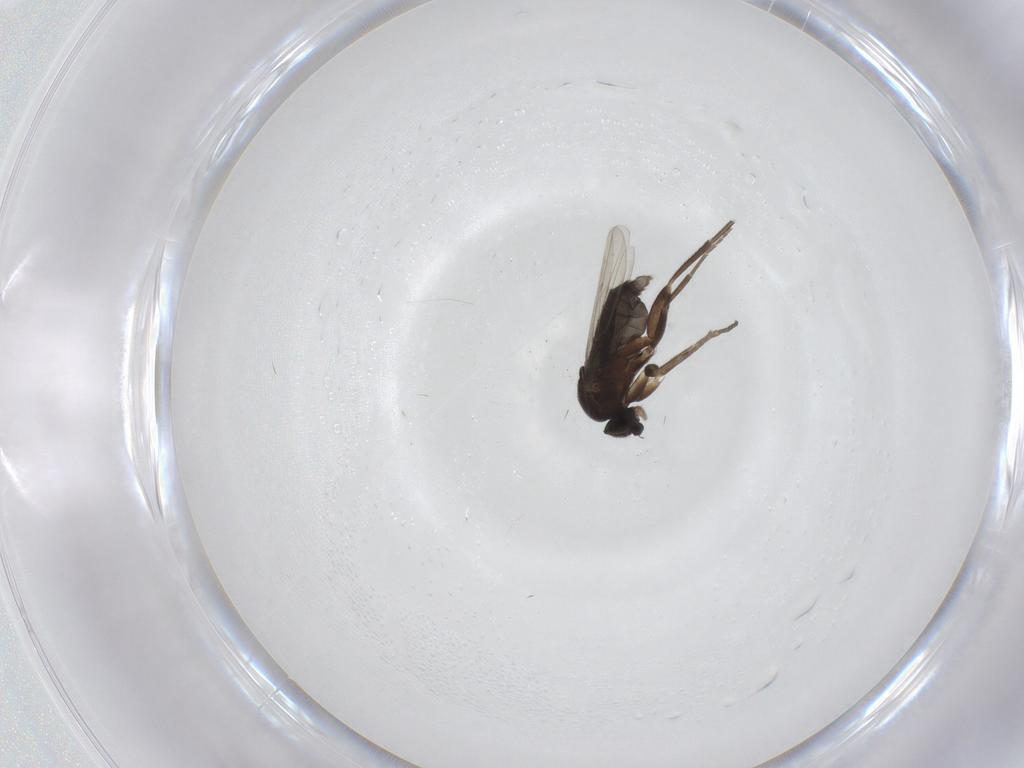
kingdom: Animalia
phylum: Arthropoda
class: Insecta
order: Diptera
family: Phoridae
